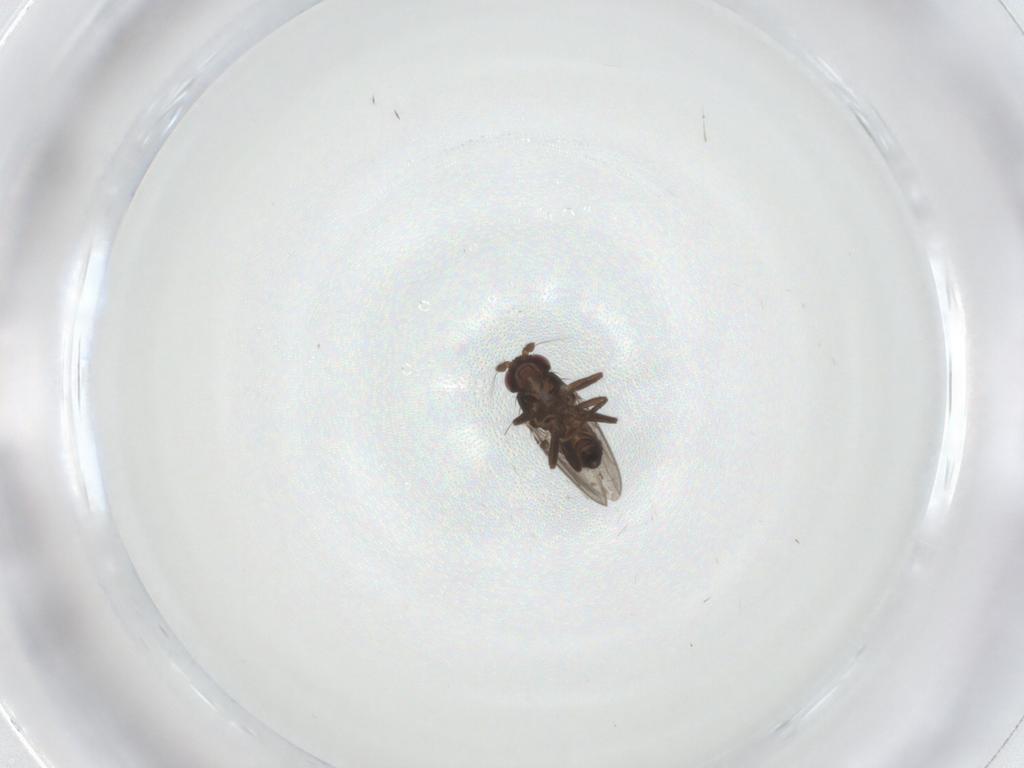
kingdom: Animalia
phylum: Arthropoda
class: Insecta
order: Diptera
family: Sphaeroceridae
